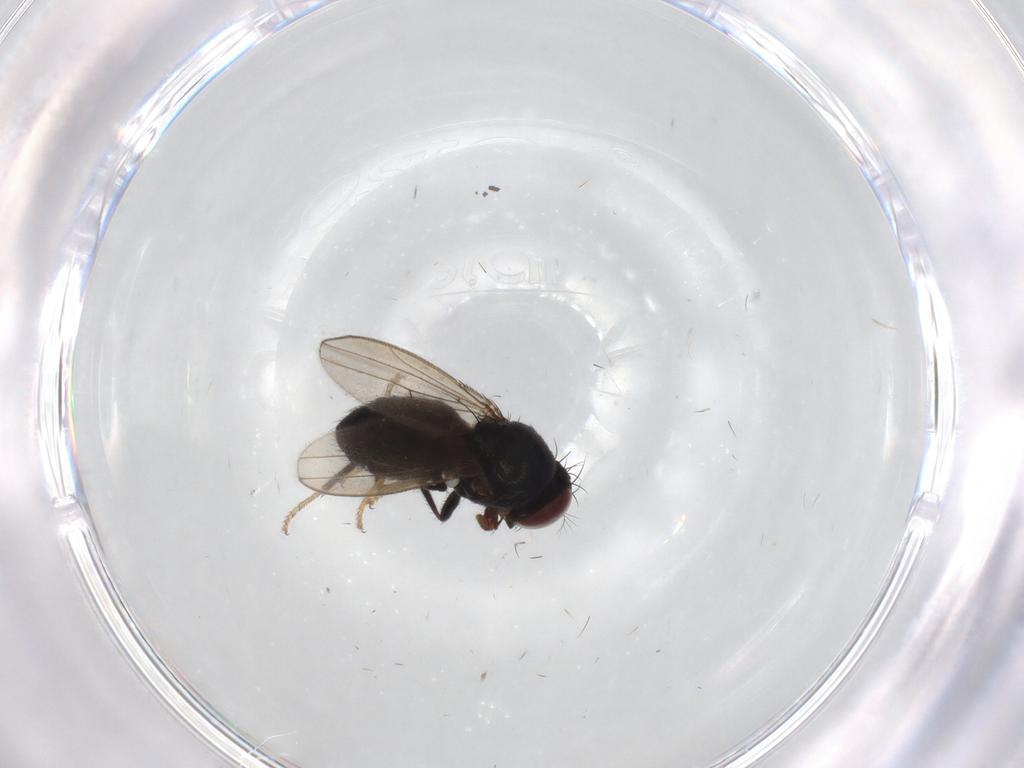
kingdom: Animalia
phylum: Arthropoda
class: Insecta
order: Diptera
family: Ephydridae
